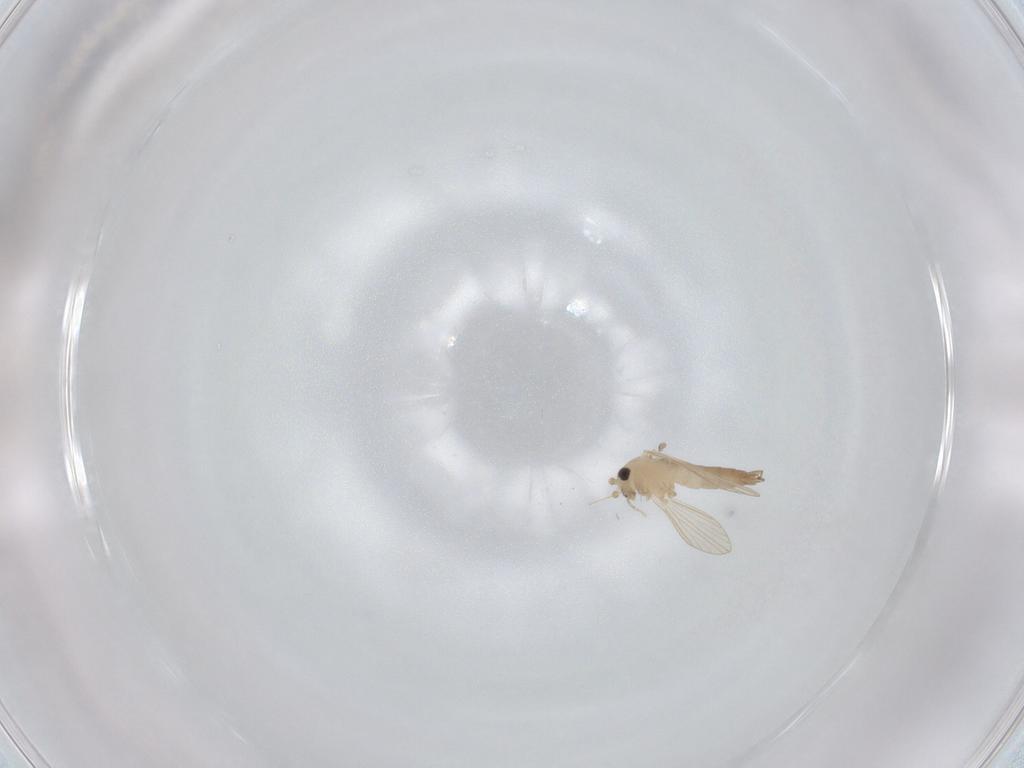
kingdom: Animalia
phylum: Arthropoda
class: Insecta
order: Diptera
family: Psychodidae
